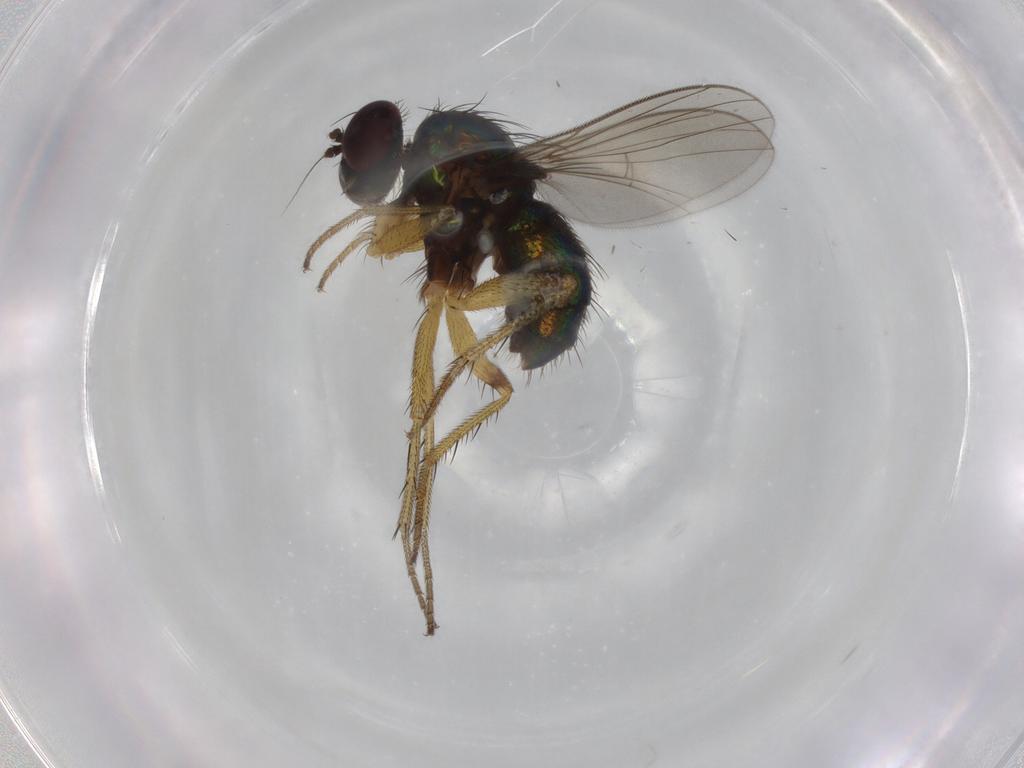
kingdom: Animalia
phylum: Arthropoda
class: Insecta
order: Diptera
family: Dolichopodidae
